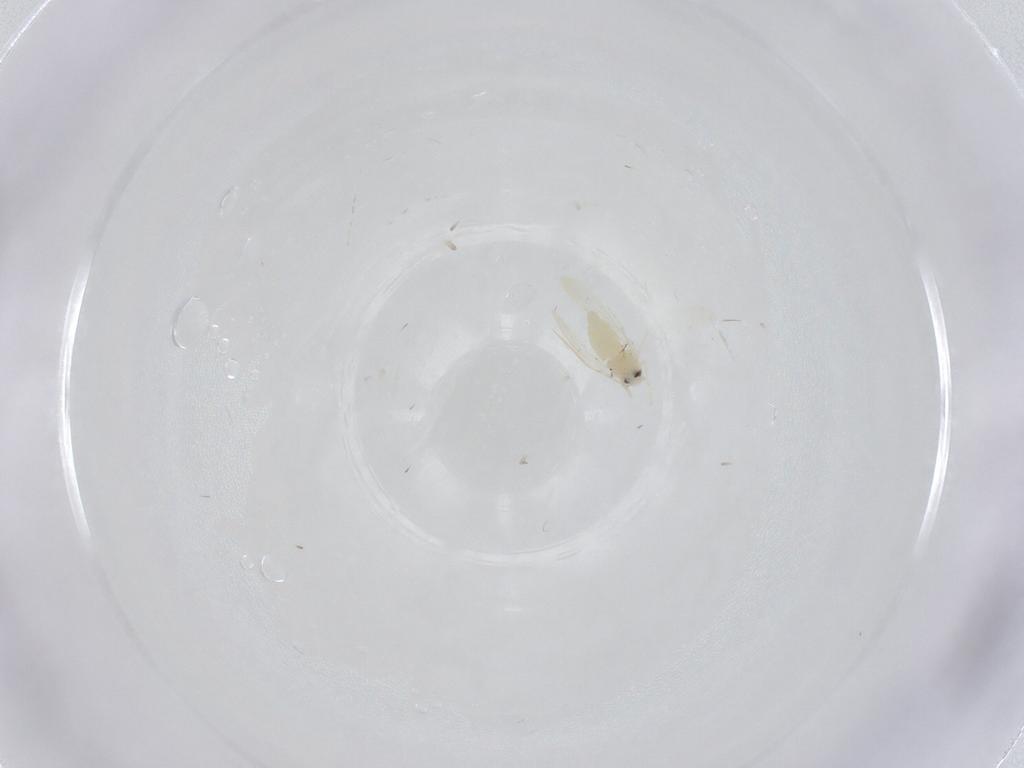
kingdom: Animalia
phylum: Arthropoda
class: Insecta
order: Hemiptera
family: Aleyrodidae
